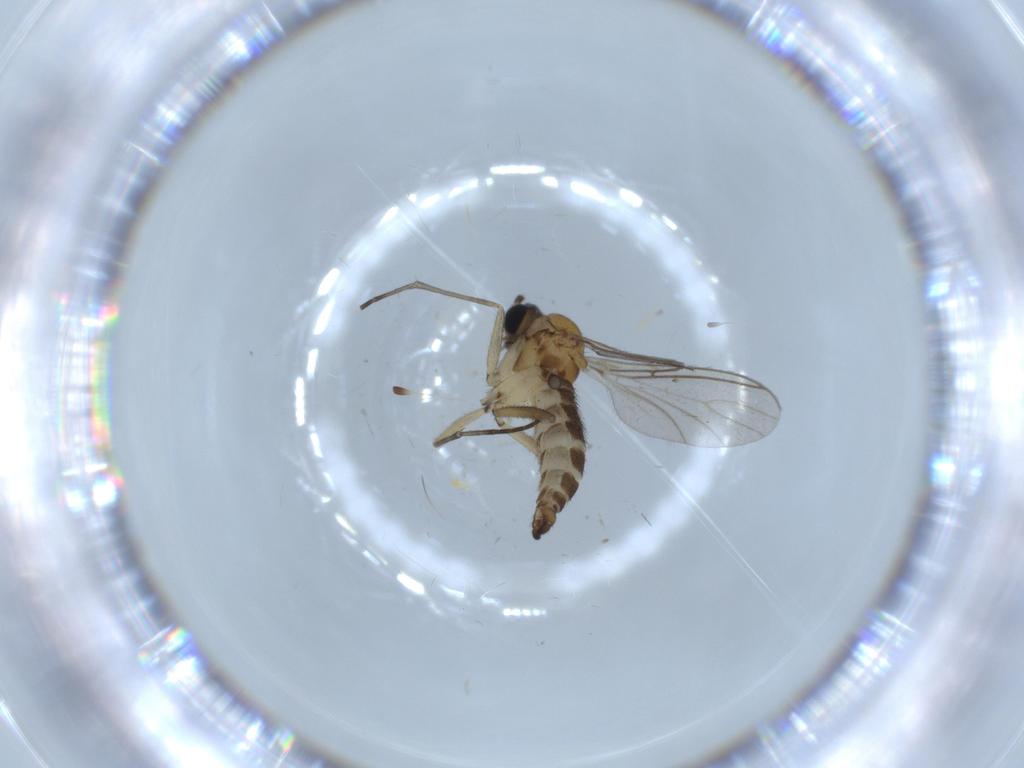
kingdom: Animalia
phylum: Arthropoda
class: Insecta
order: Diptera
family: Sciaridae
